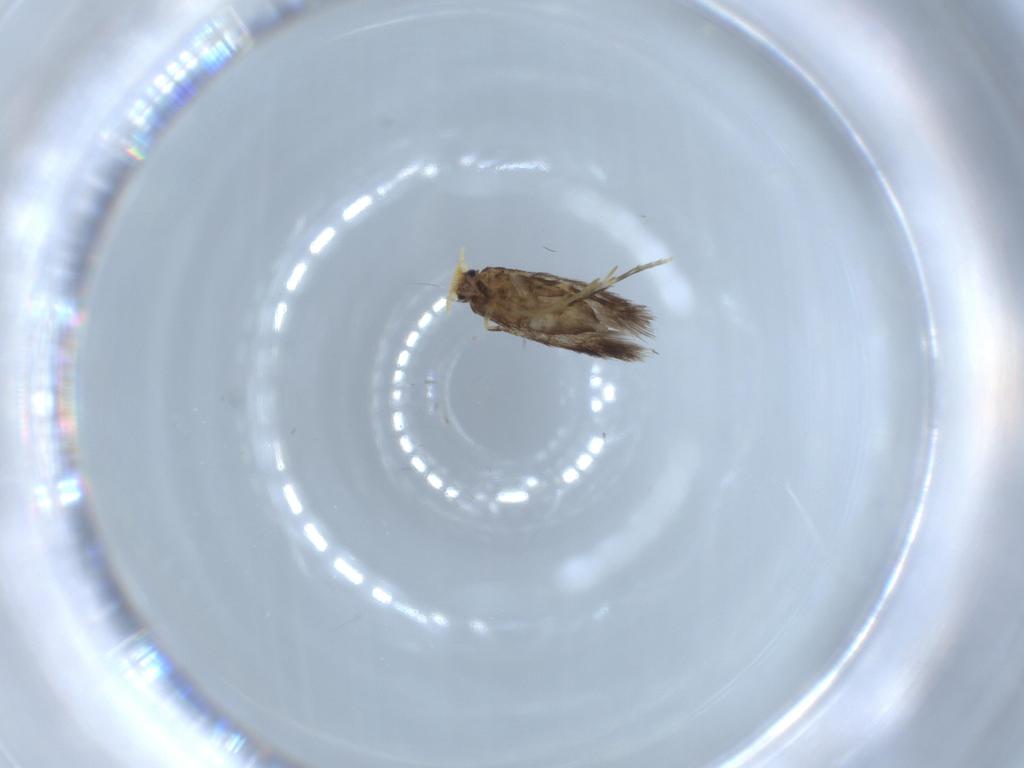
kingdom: Animalia
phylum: Arthropoda
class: Insecta
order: Lepidoptera
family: Nepticulidae
